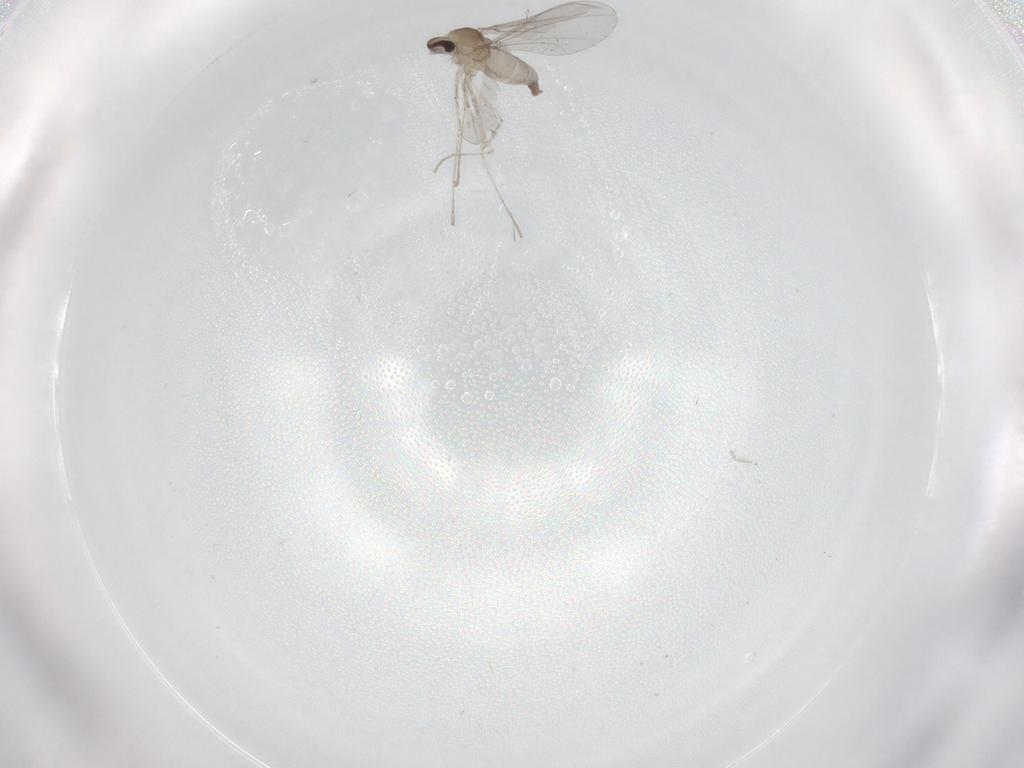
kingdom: Animalia
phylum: Arthropoda
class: Insecta
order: Diptera
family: Cecidomyiidae
